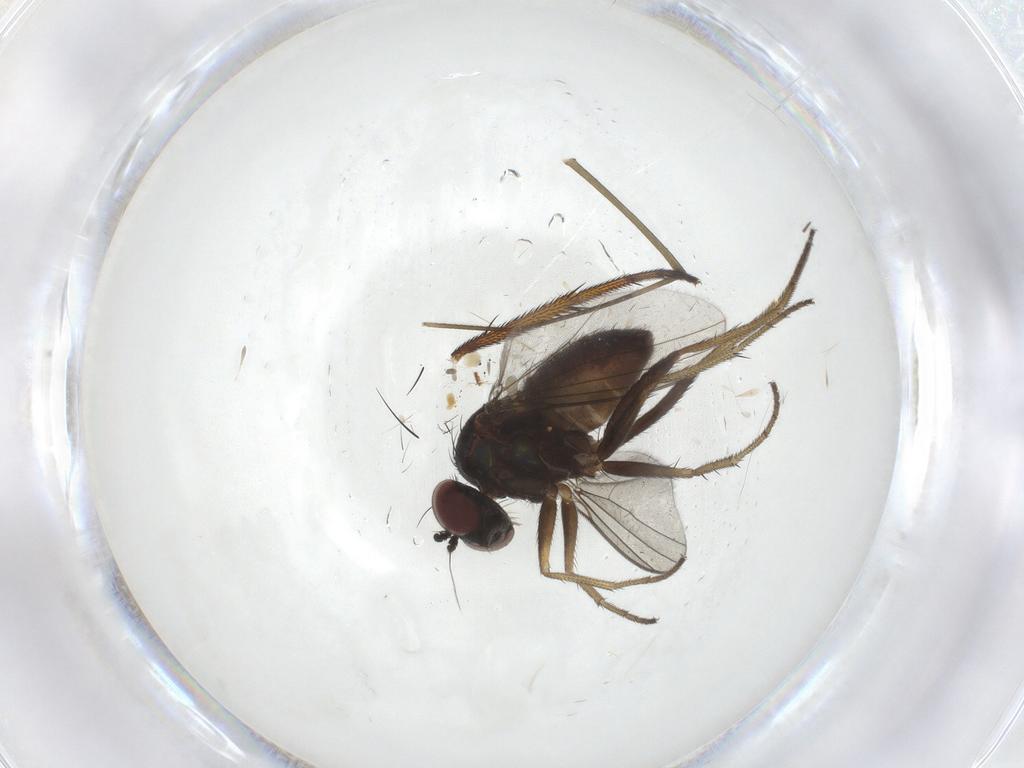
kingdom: Animalia
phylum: Arthropoda
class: Insecta
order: Diptera
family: Dolichopodidae
